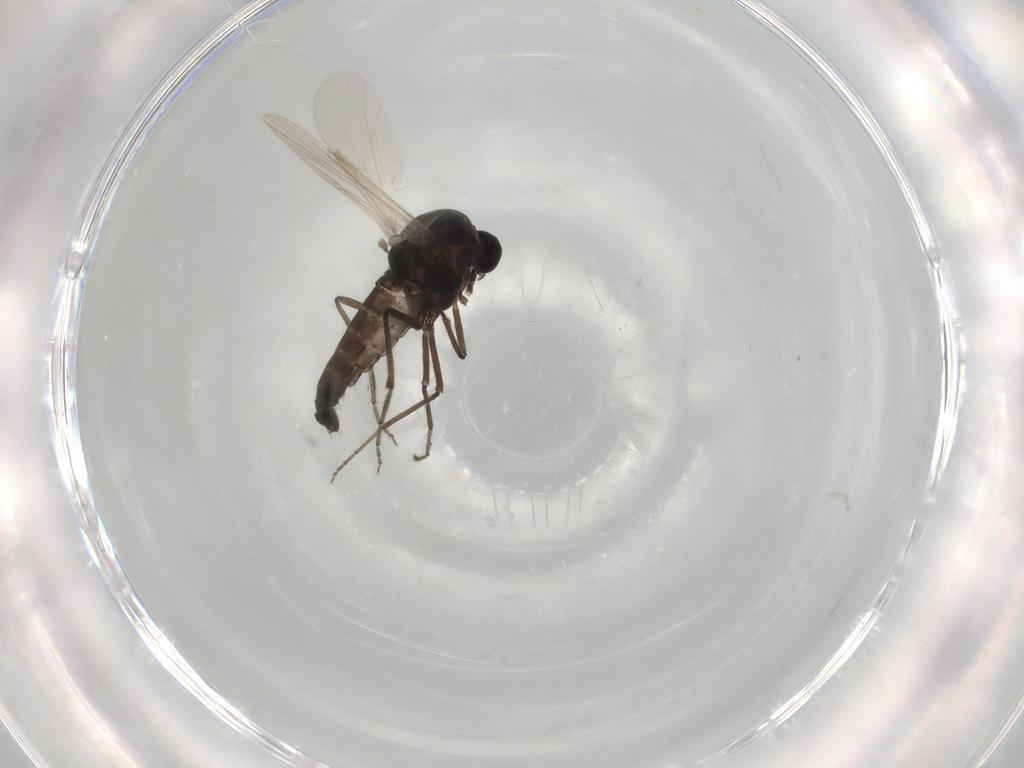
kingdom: Animalia
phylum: Arthropoda
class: Insecta
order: Diptera
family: Ceratopogonidae
